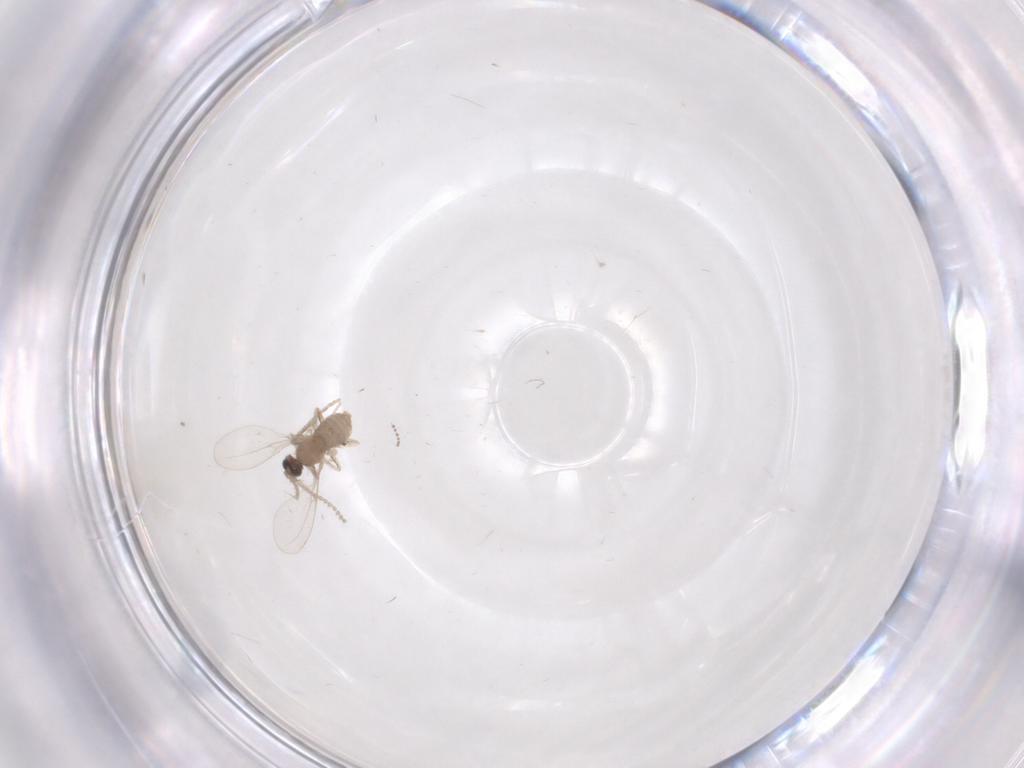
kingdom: Animalia
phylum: Arthropoda
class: Insecta
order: Diptera
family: Cecidomyiidae
